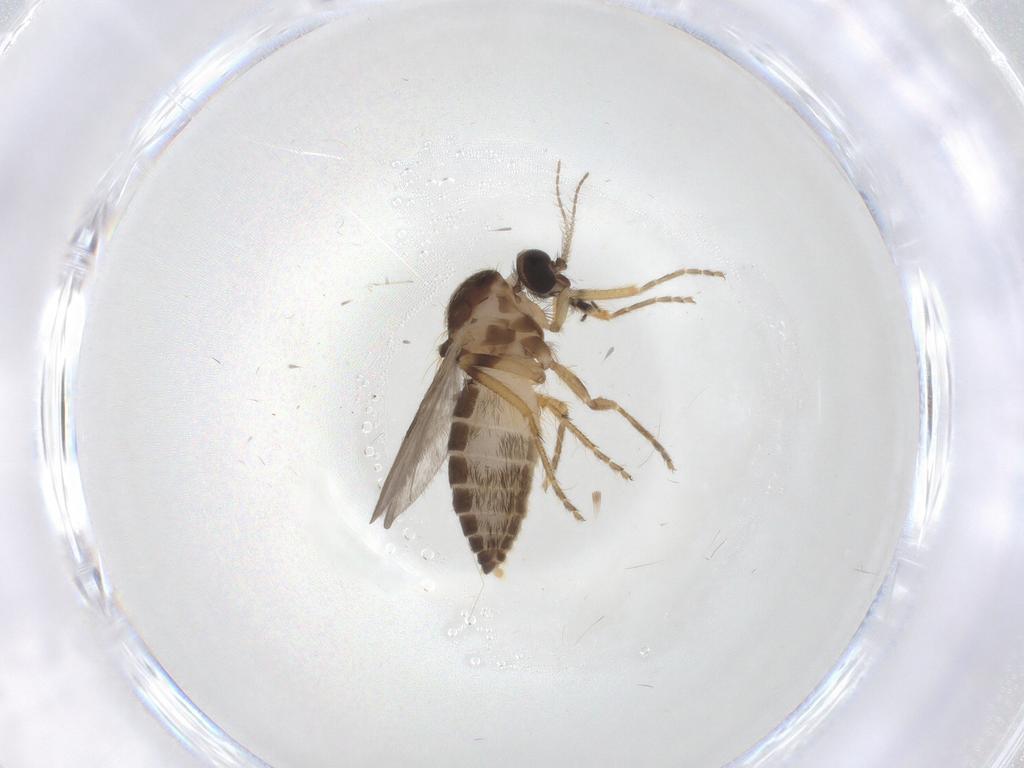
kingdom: Animalia
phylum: Arthropoda
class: Insecta
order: Diptera
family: Ceratopogonidae
